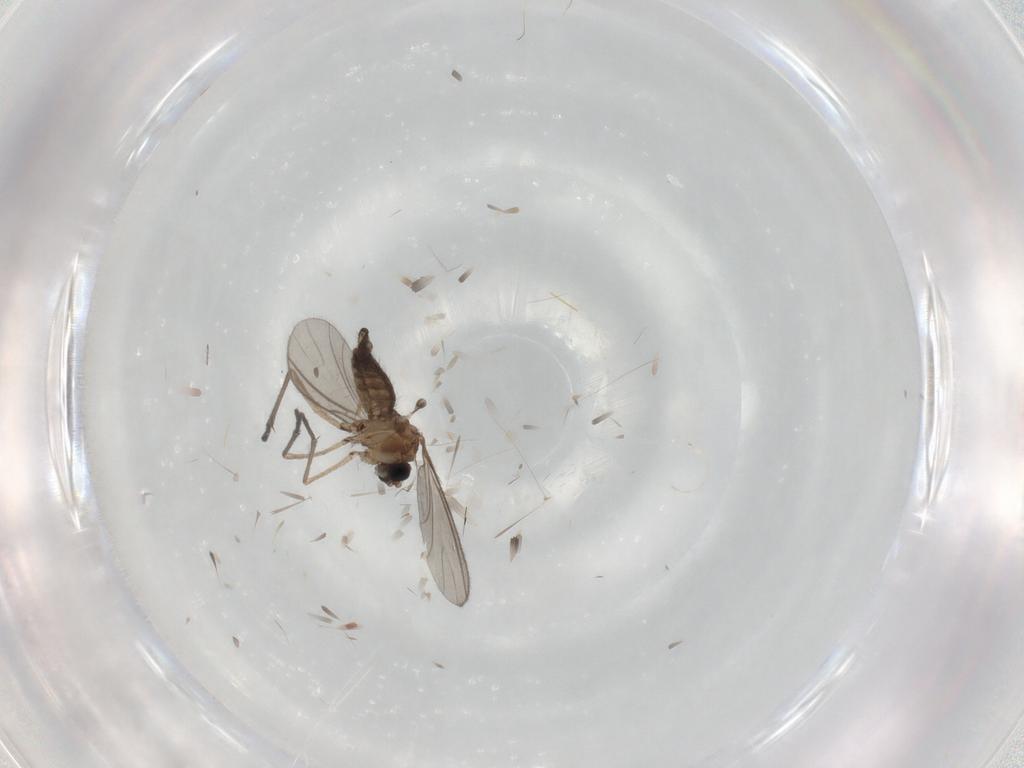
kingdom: Animalia
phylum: Arthropoda
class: Insecta
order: Diptera
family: Sciaridae
